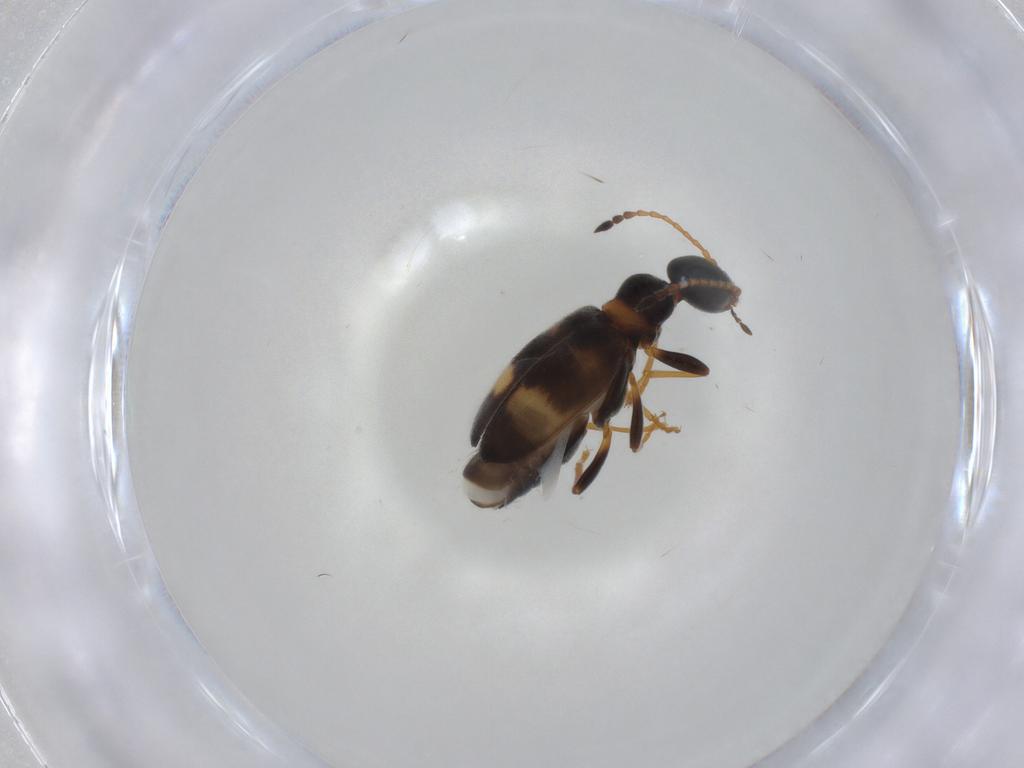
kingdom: Animalia
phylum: Arthropoda
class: Insecta
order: Coleoptera
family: Anthicidae
